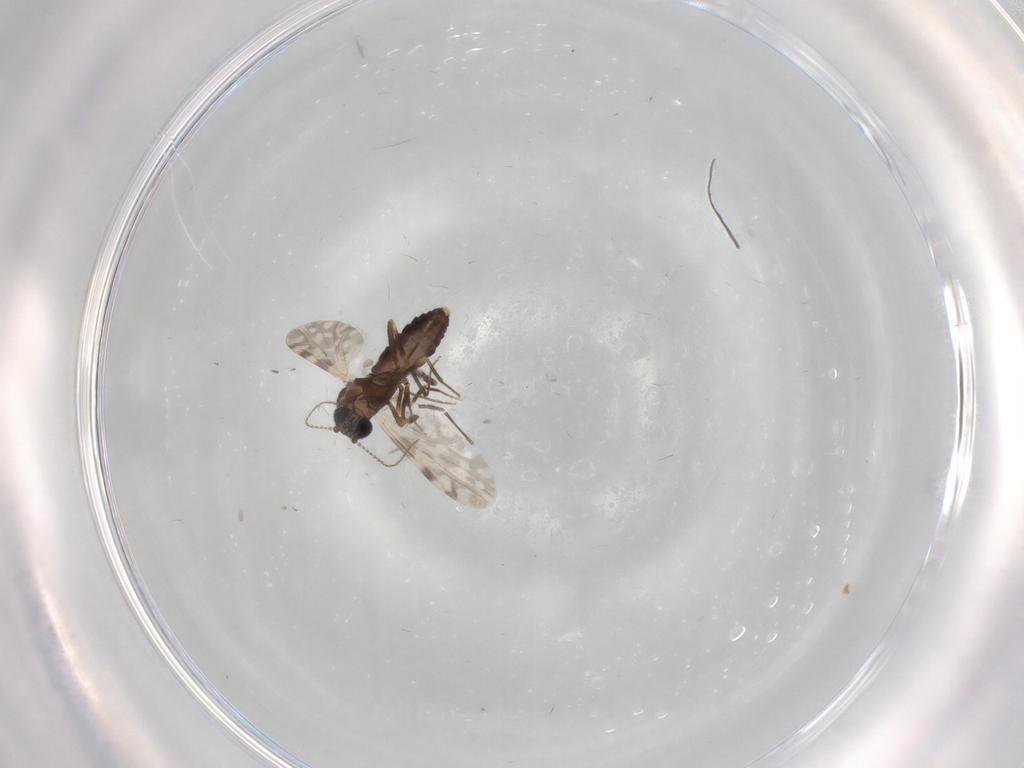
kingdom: Animalia
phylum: Arthropoda
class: Insecta
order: Diptera
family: Ceratopogonidae
